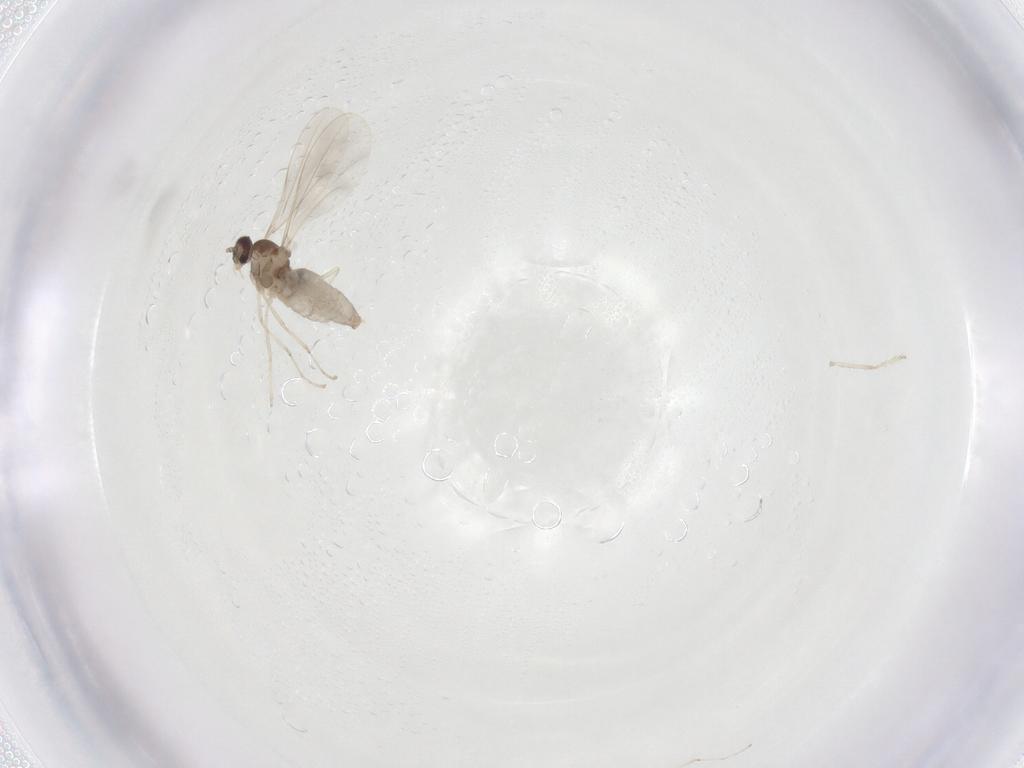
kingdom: Animalia
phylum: Arthropoda
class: Insecta
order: Diptera
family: Cecidomyiidae
